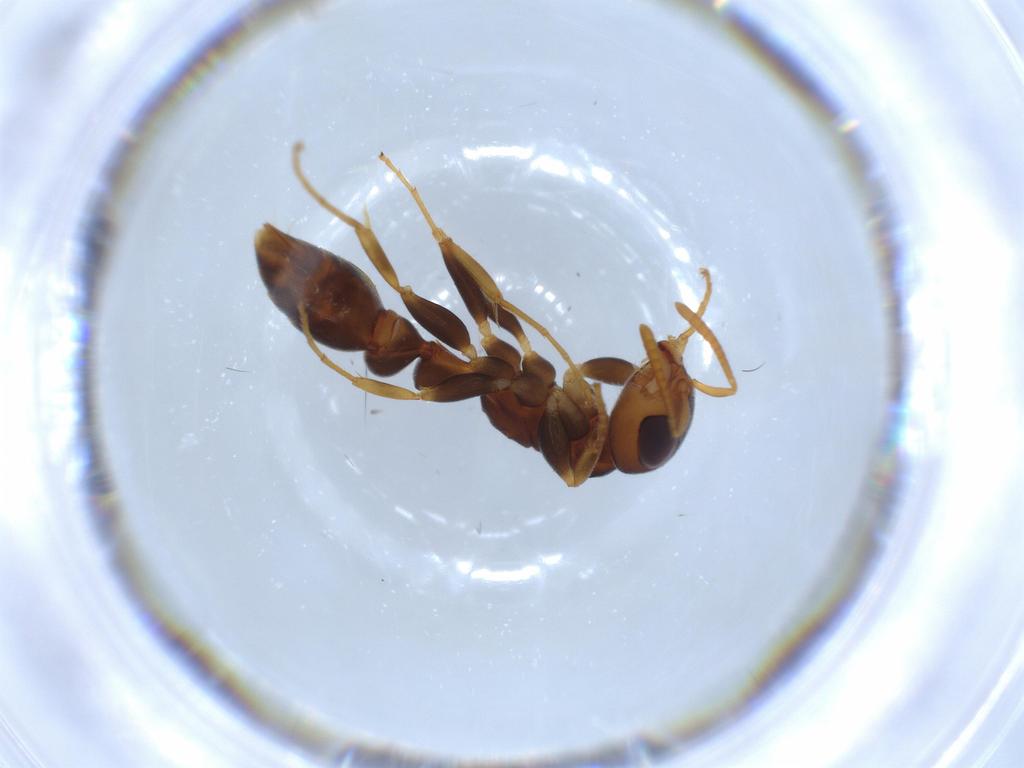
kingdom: Animalia
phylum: Arthropoda
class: Insecta
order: Hymenoptera
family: Formicidae
